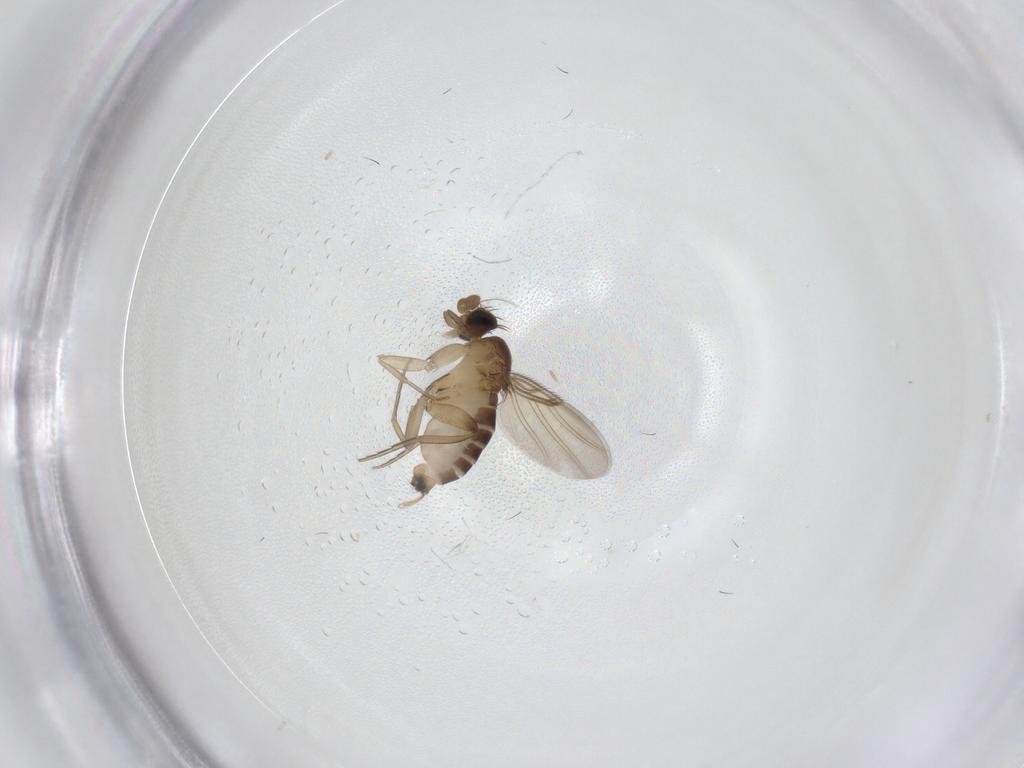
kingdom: Animalia
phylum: Arthropoda
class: Insecta
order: Diptera
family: Phoridae
